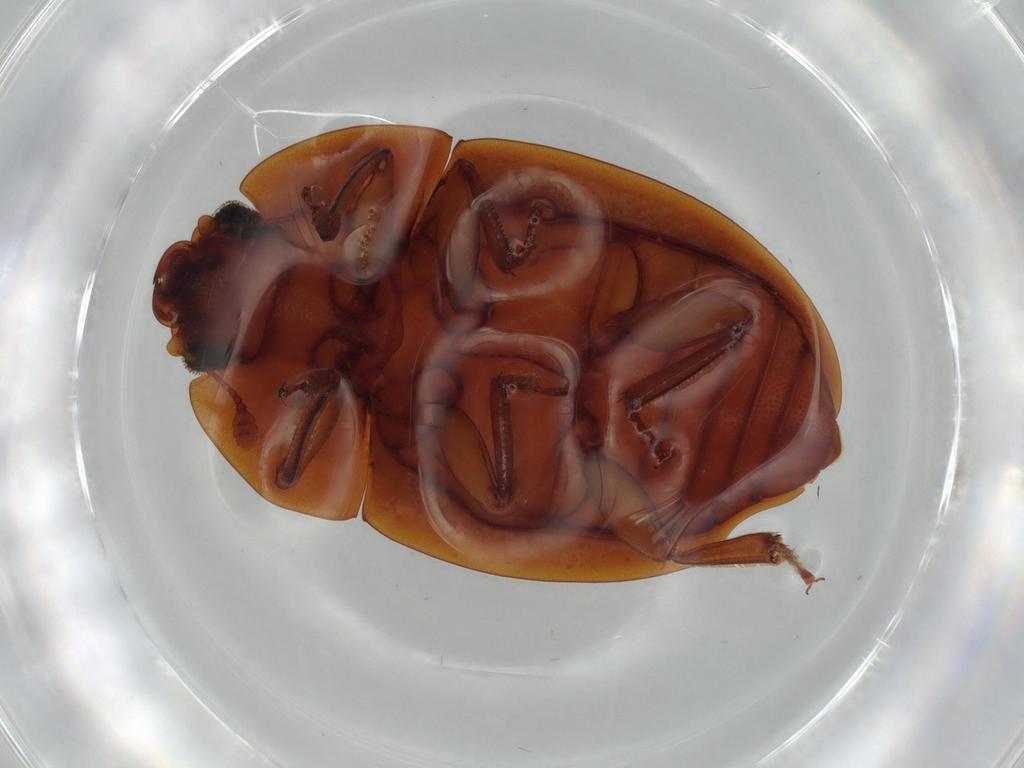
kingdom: Animalia
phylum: Arthropoda
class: Insecta
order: Coleoptera
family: Nitidulidae
